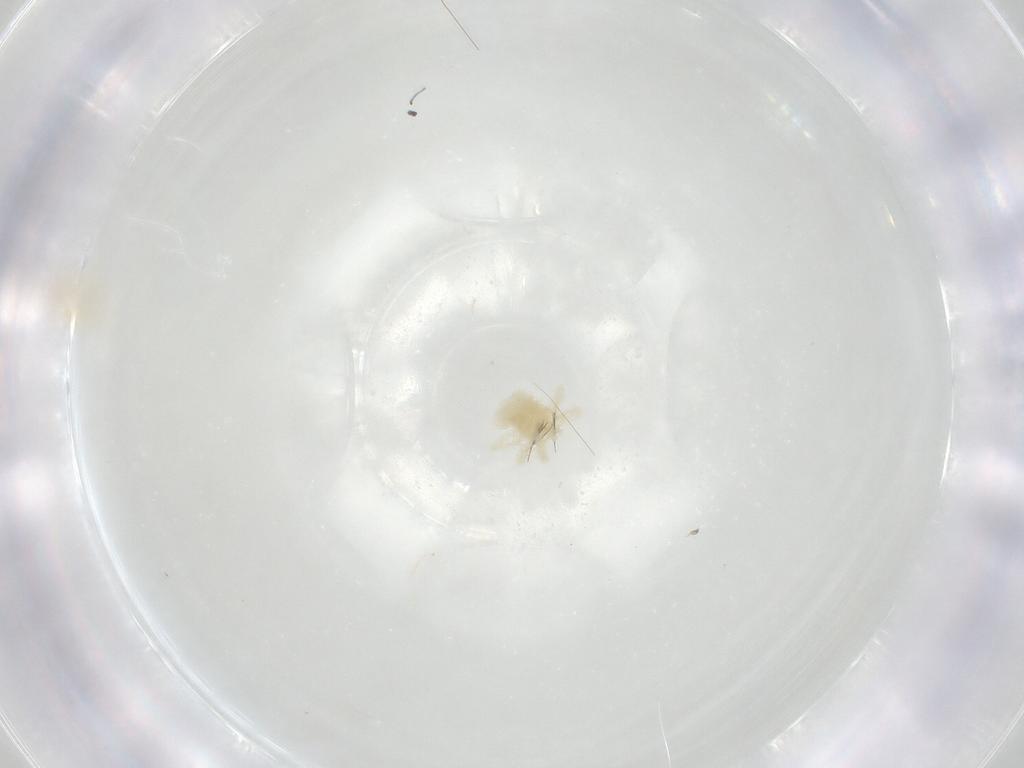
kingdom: Animalia
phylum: Arthropoda
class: Arachnida
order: Trombidiformes
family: Anystidae
